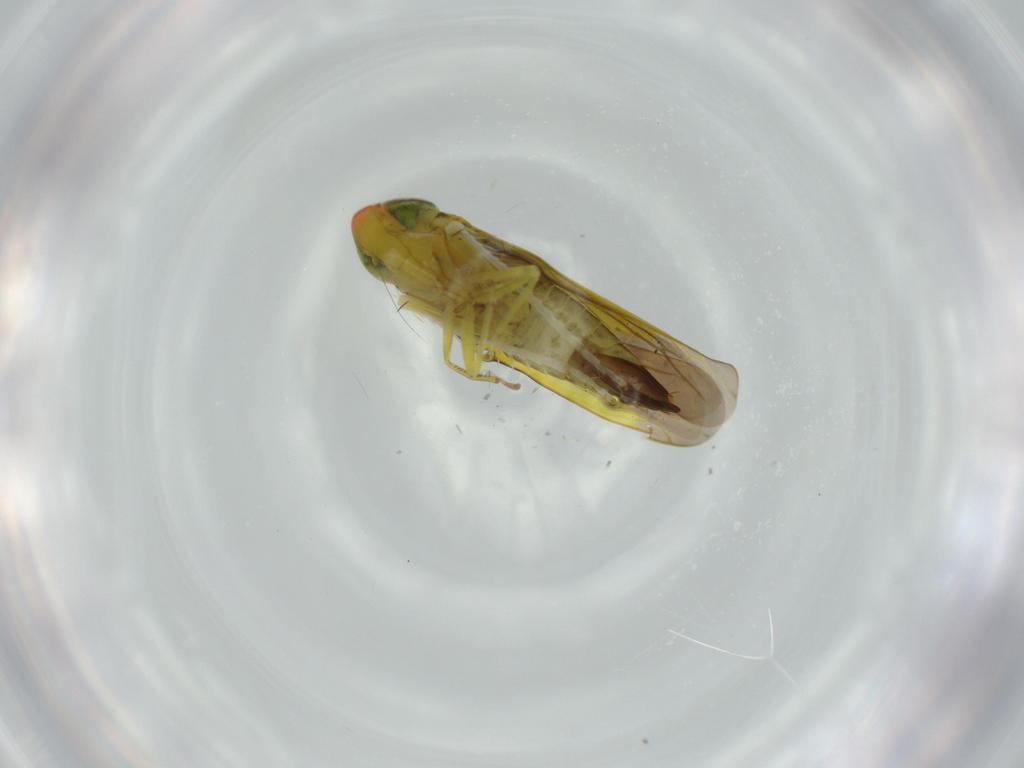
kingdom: Animalia
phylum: Arthropoda
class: Insecta
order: Hemiptera
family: Cicadellidae
